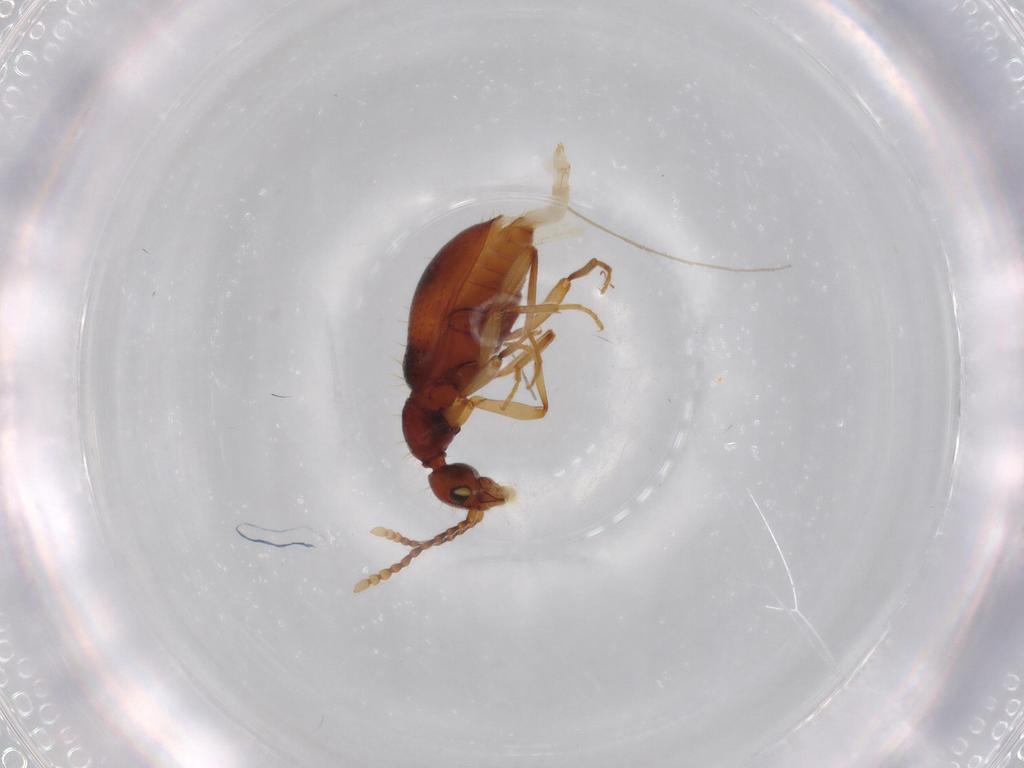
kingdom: Animalia
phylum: Arthropoda
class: Insecta
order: Coleoptera
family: Anthicidae
